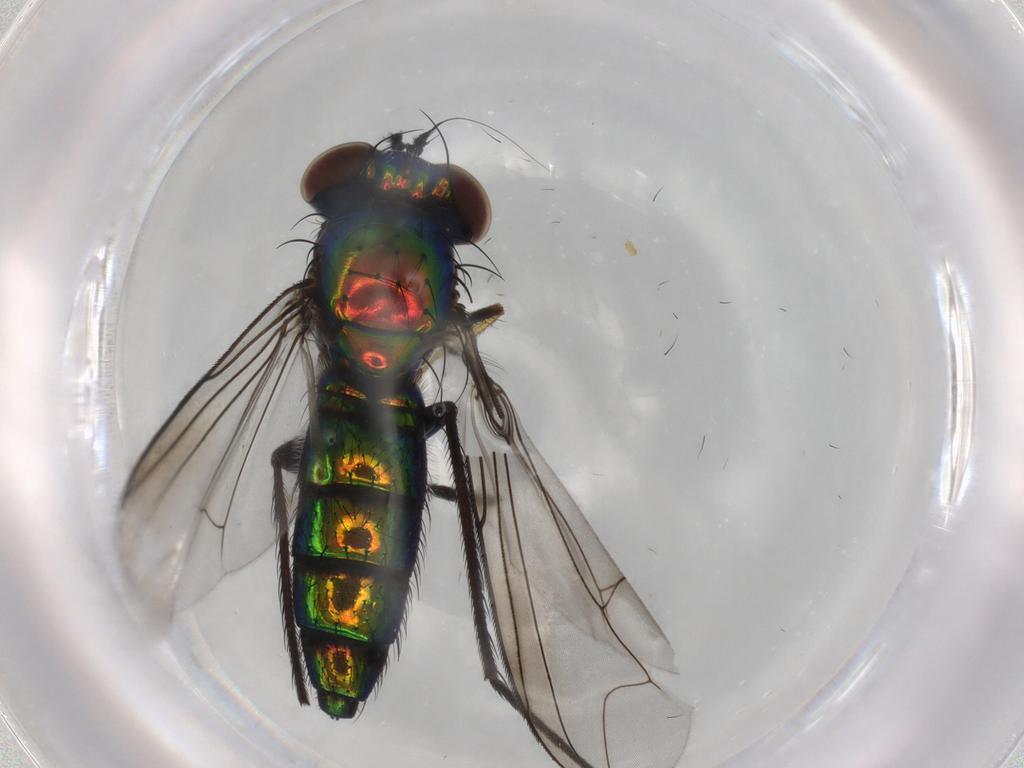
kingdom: Animalia
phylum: Arthropoda
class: Insecta
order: Diptera
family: Dolichopodidae
